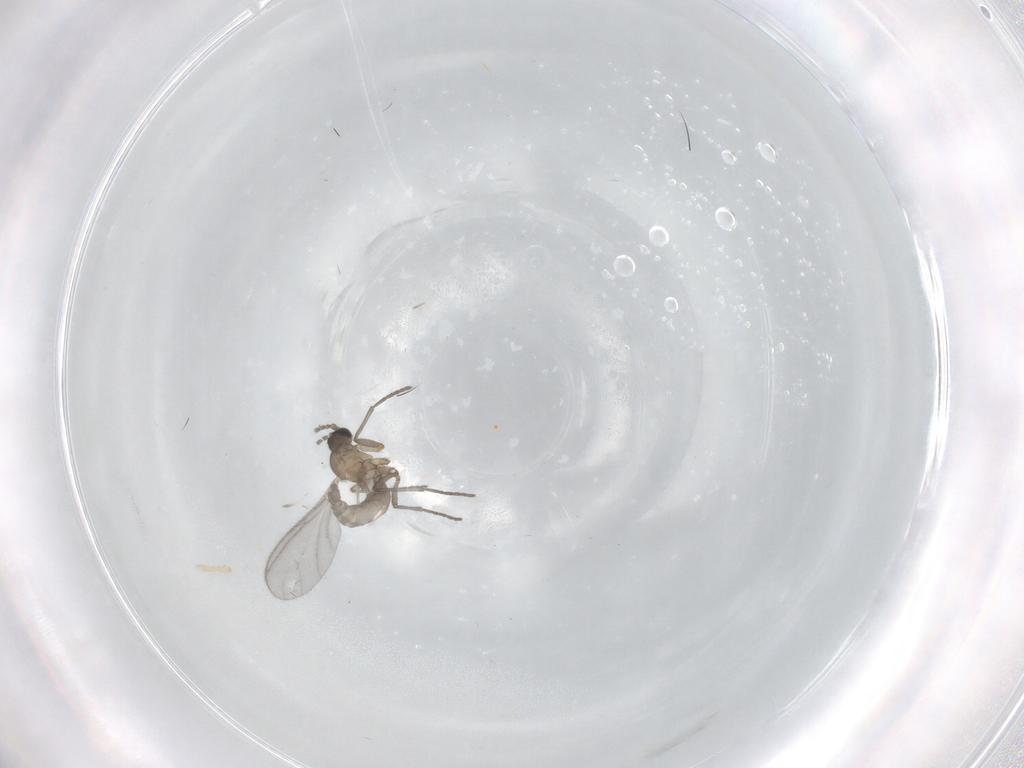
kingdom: Animalia
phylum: Arthropoda
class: Insecta
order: Diptera
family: Sciaridae
